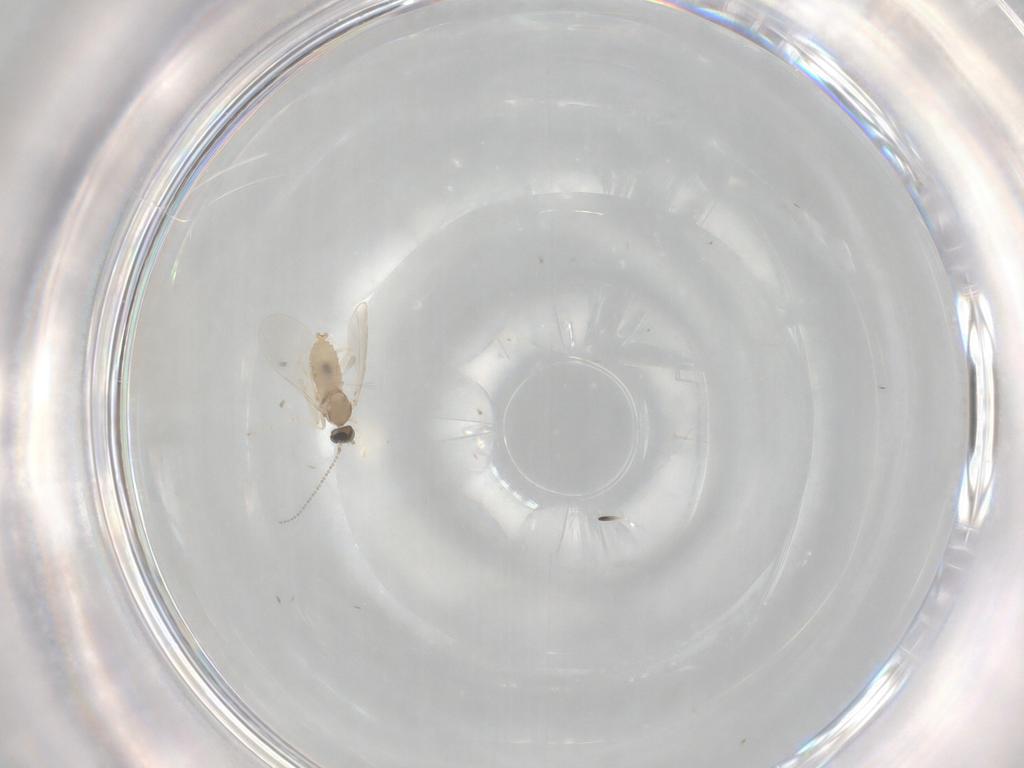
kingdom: Animalia
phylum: Arthropoda
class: Insecta
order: Diptera
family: Cecidomyiidae
